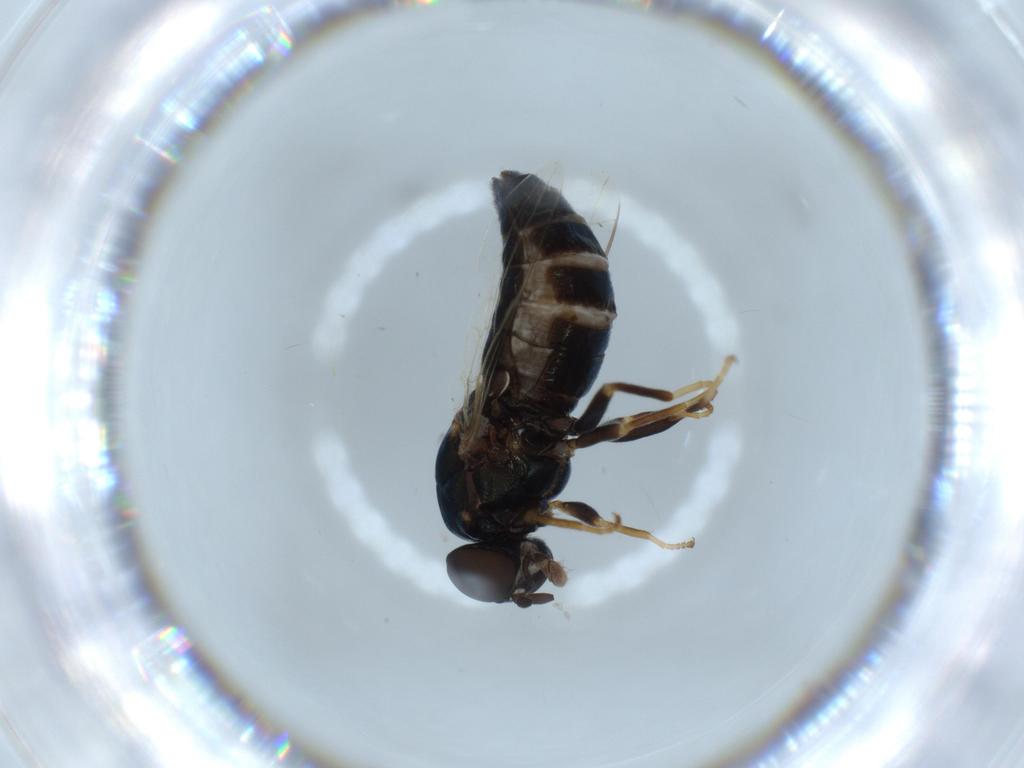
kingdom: Animalia
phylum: Arthropoda
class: Insecta
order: Diptera
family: Scenopinidae
